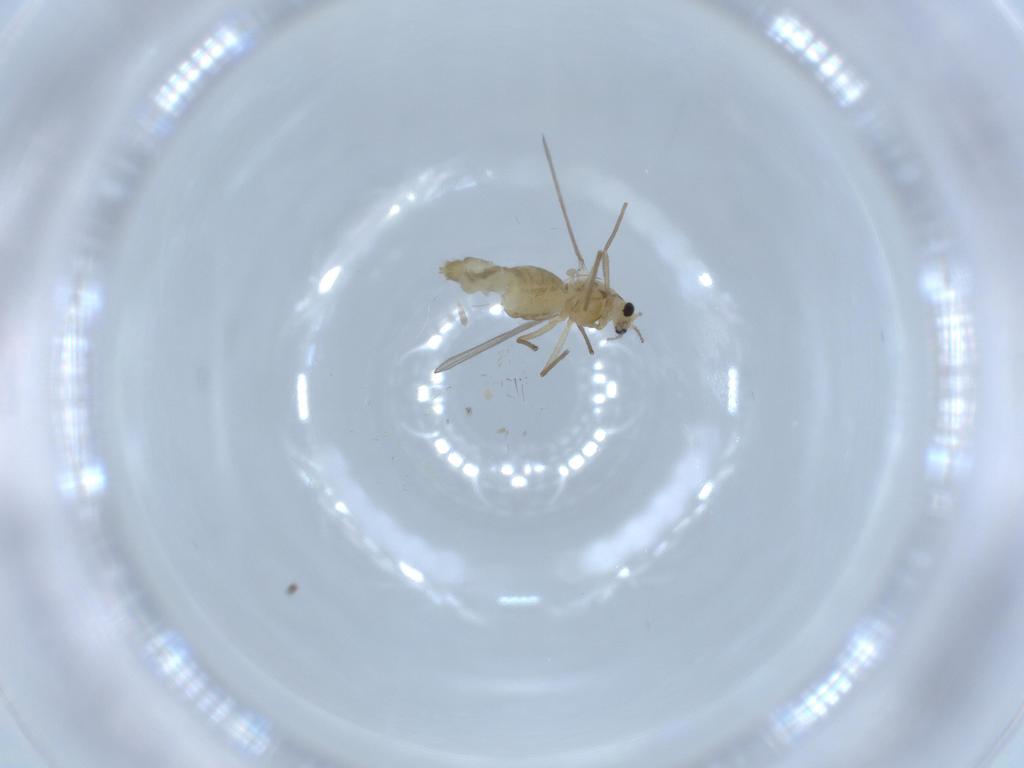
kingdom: Animalia
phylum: Arthropoda
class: Insecta
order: Diptera
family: Chironomidae
